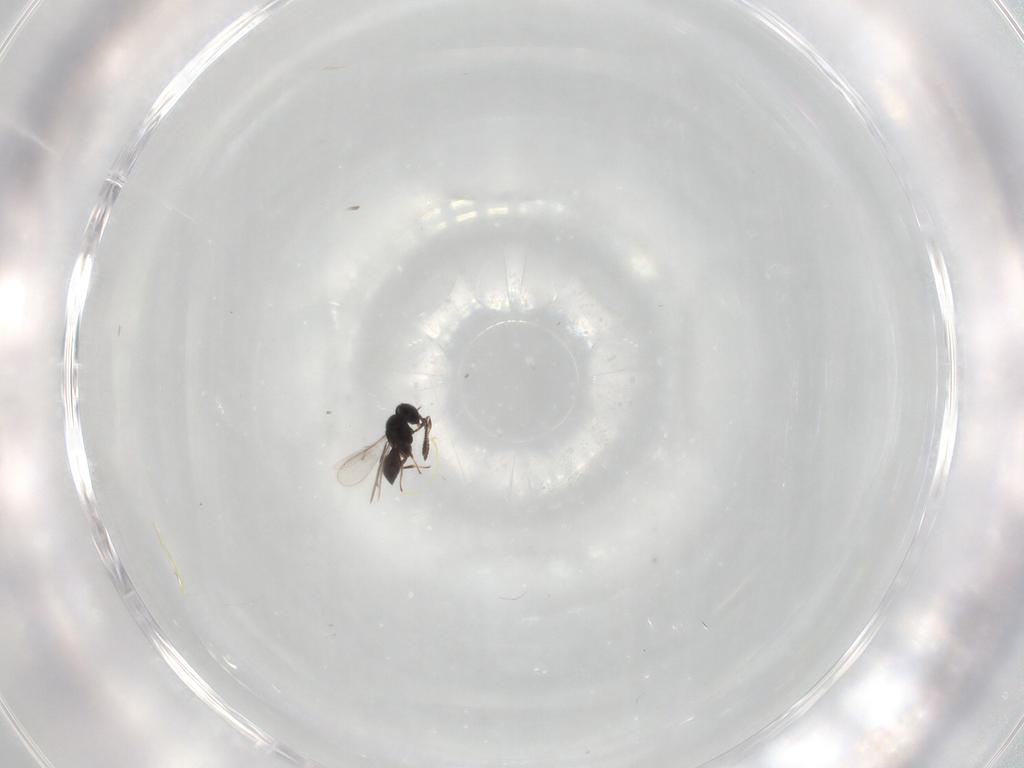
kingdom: Animalia
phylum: Arthropoda
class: Insecta
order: Hymenoptera
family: Scelionidae
